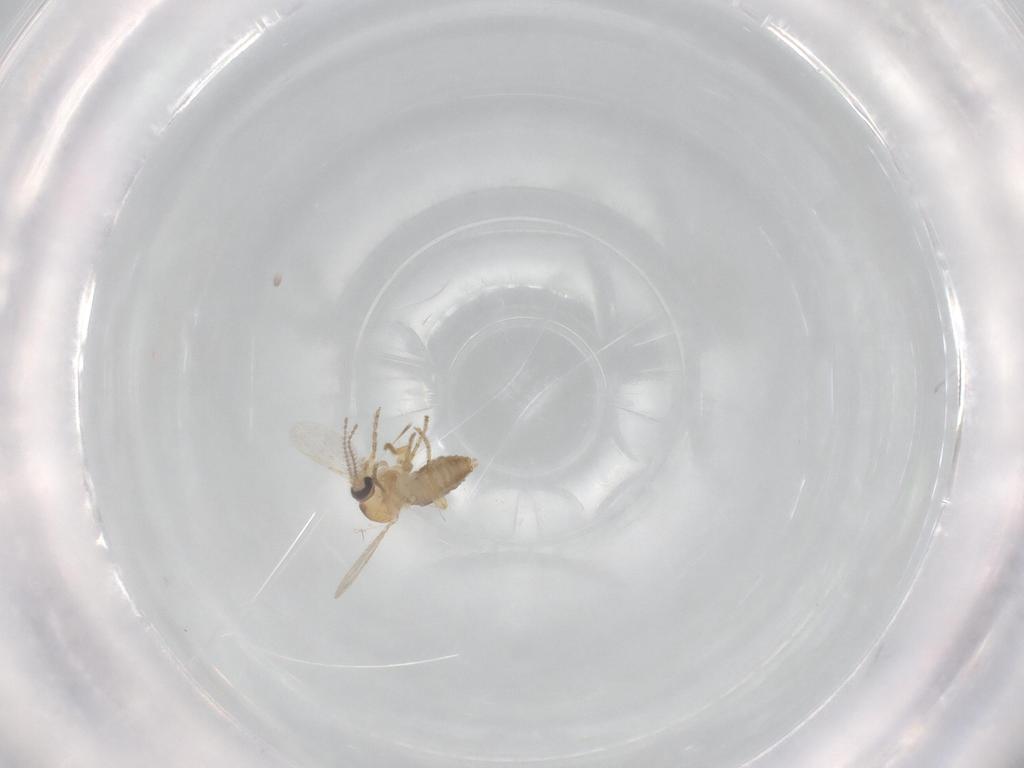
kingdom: Animalia
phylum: Arthropoda
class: Insecta
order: Diptera
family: Ceratopogonidae
